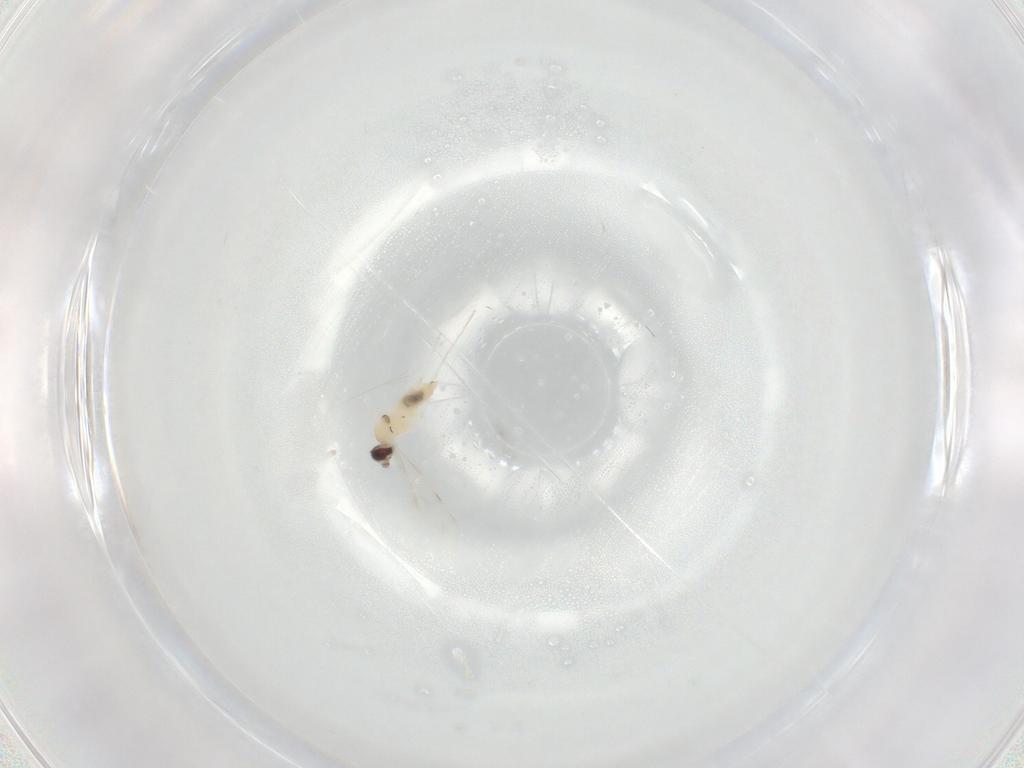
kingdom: Animalia
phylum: Arthropoda
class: Insecta
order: Diptera
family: Cecidomyiidae
